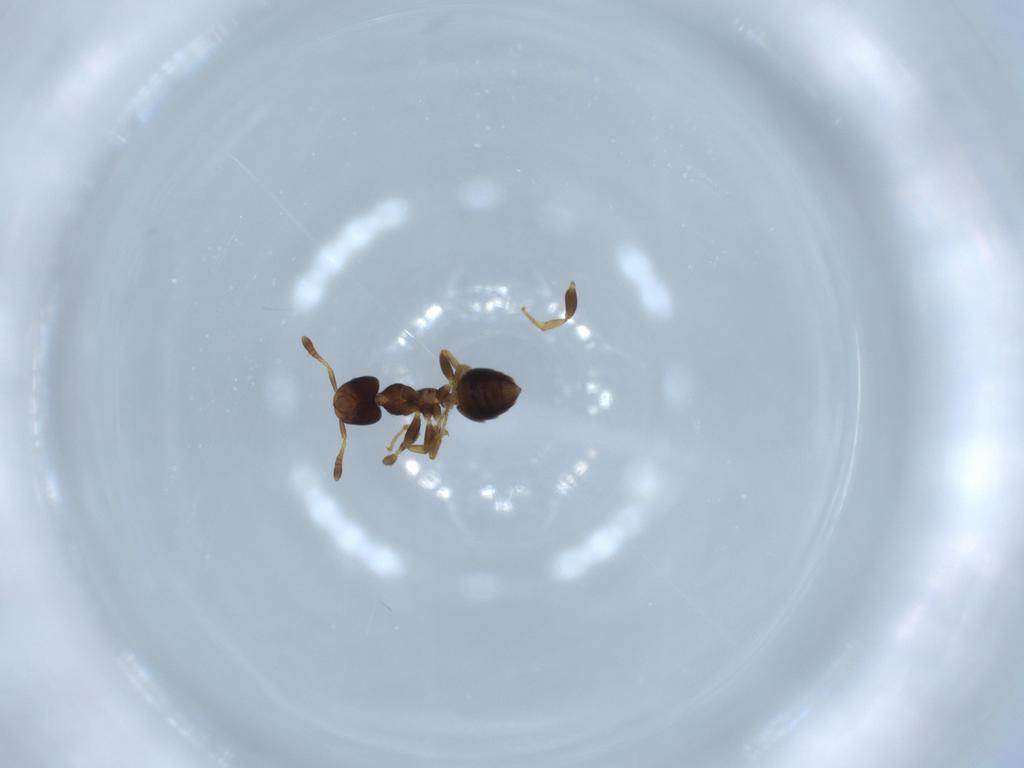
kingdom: Animalia
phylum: Arthropoda
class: Insecta
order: Hymenoptera
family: Formicidae
